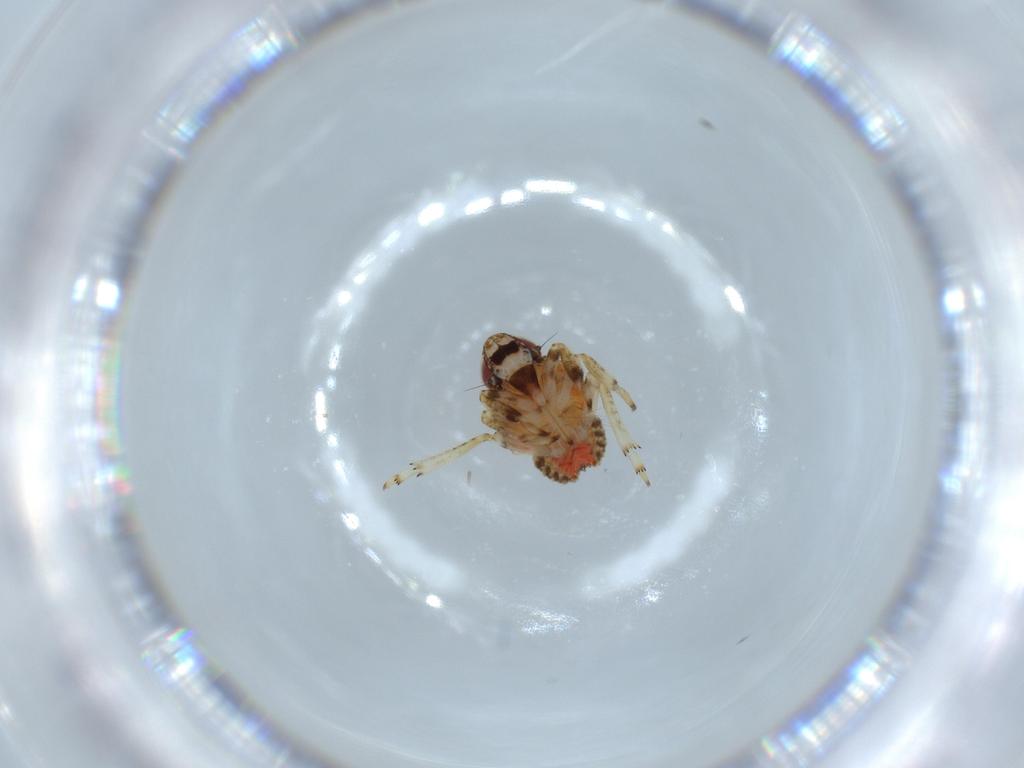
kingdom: Animalia
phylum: Arthropoda
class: Insecta
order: Hemiptera
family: Issidae
